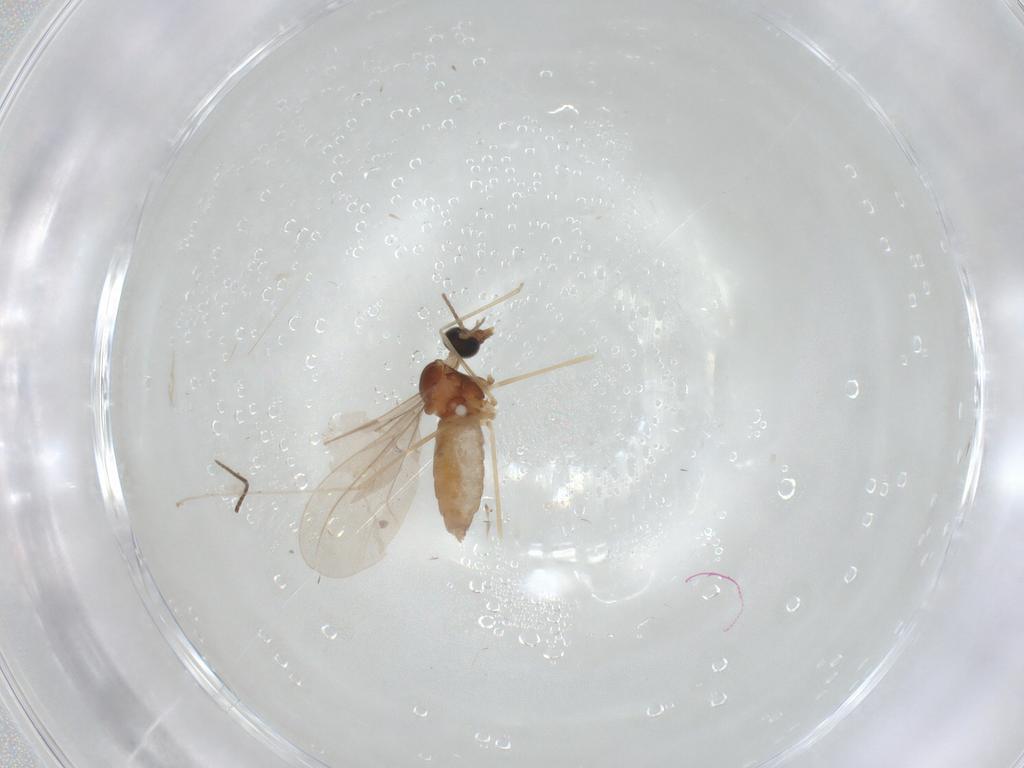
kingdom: Animalia
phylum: Arthropoda
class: Insecta
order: Diptera
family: Cecidomyiidae
